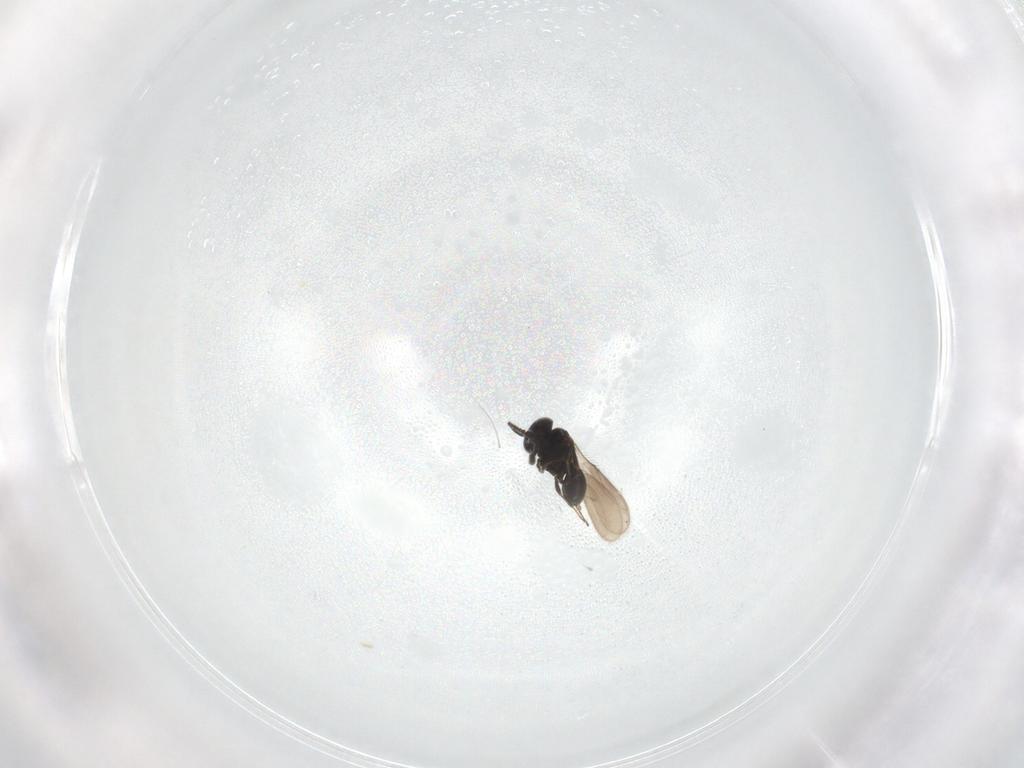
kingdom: Animalia
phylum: Arthropoda
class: Insecta
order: Hymenoptera
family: Scelionidae
